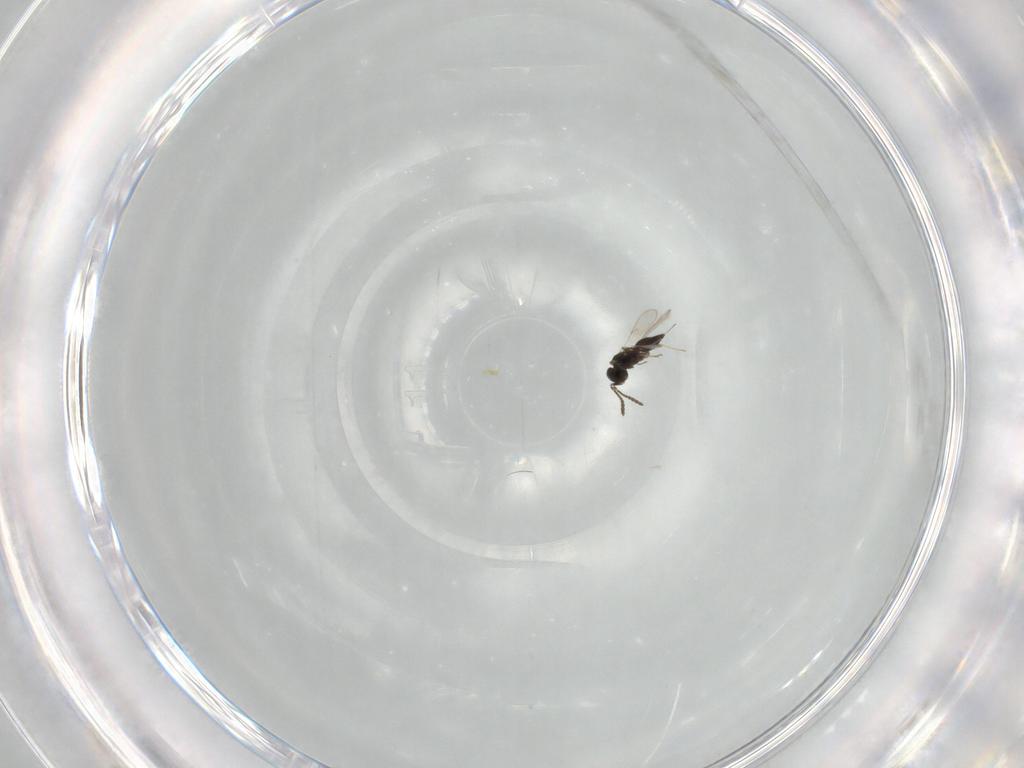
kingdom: Animalia
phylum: Arthropoda
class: Insecta
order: Hymenoptera
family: Scelionidae
